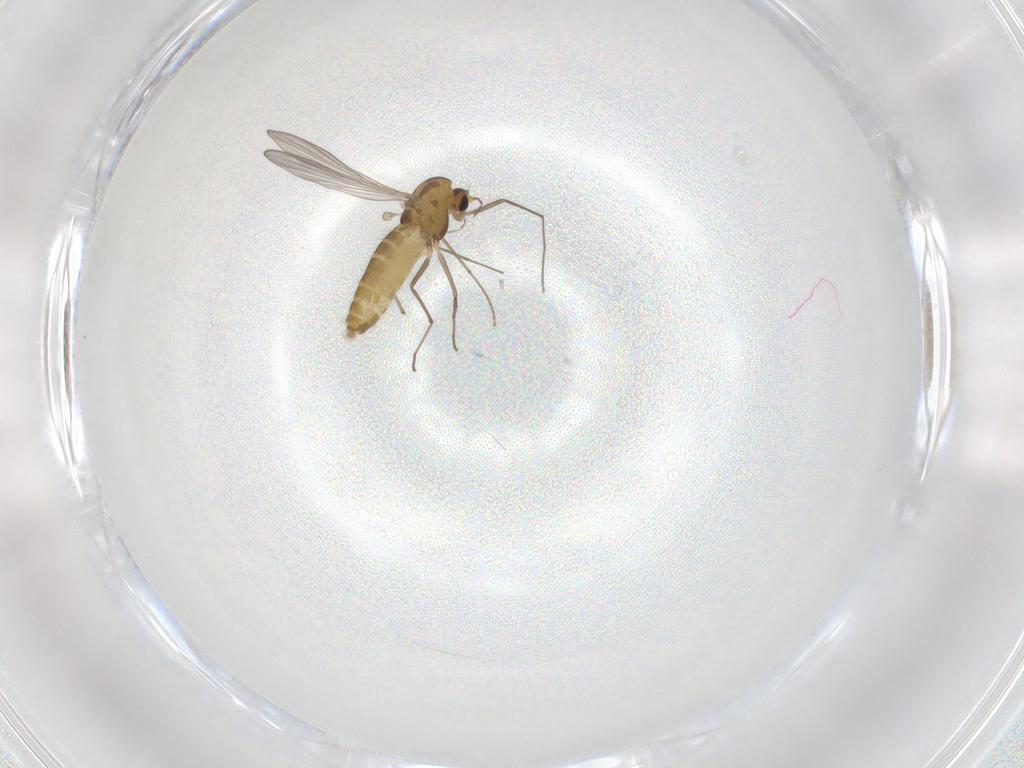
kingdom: Animalia
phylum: Arthropoda
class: Insecta
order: Diptera
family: Chironomidae
